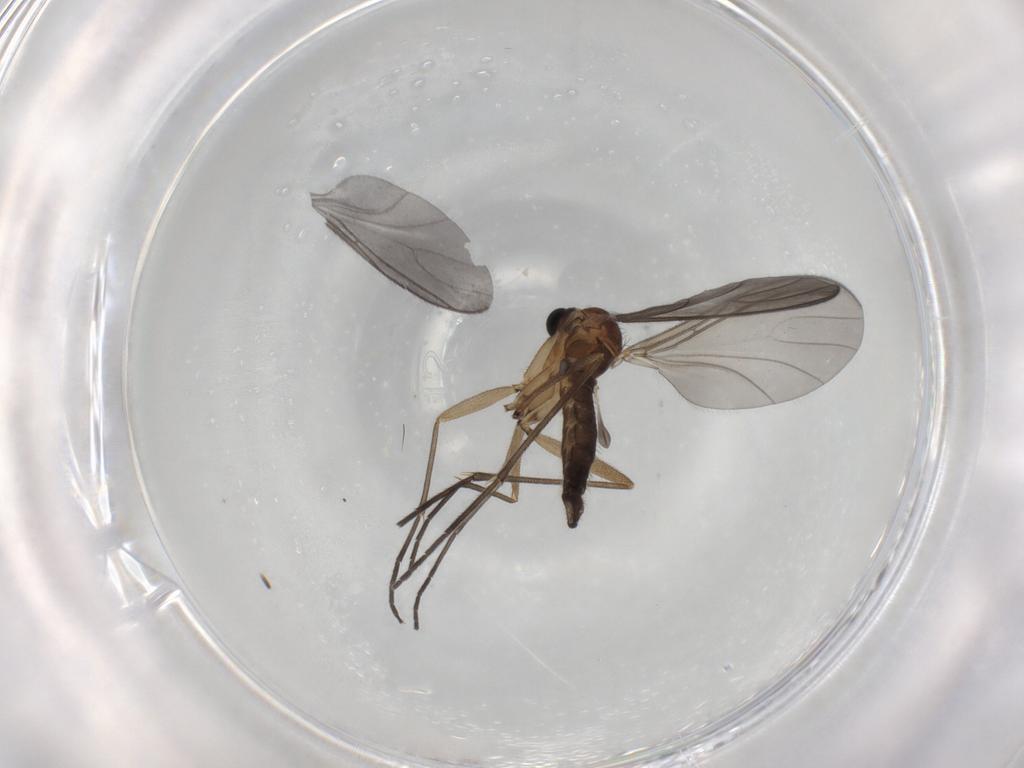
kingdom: Animalia
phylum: Arthropoda
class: Insecta
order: Diptera
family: Sciaridae
